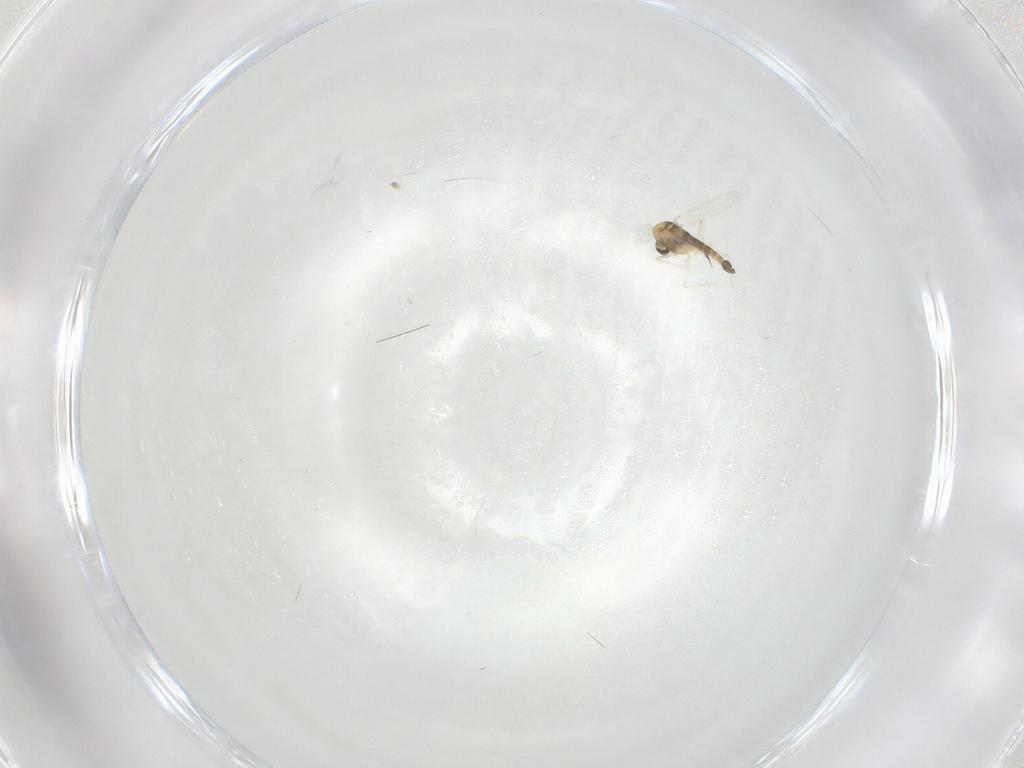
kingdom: Animalia
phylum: Arthropoda
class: Insecta
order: Diptera
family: Chironomidae
